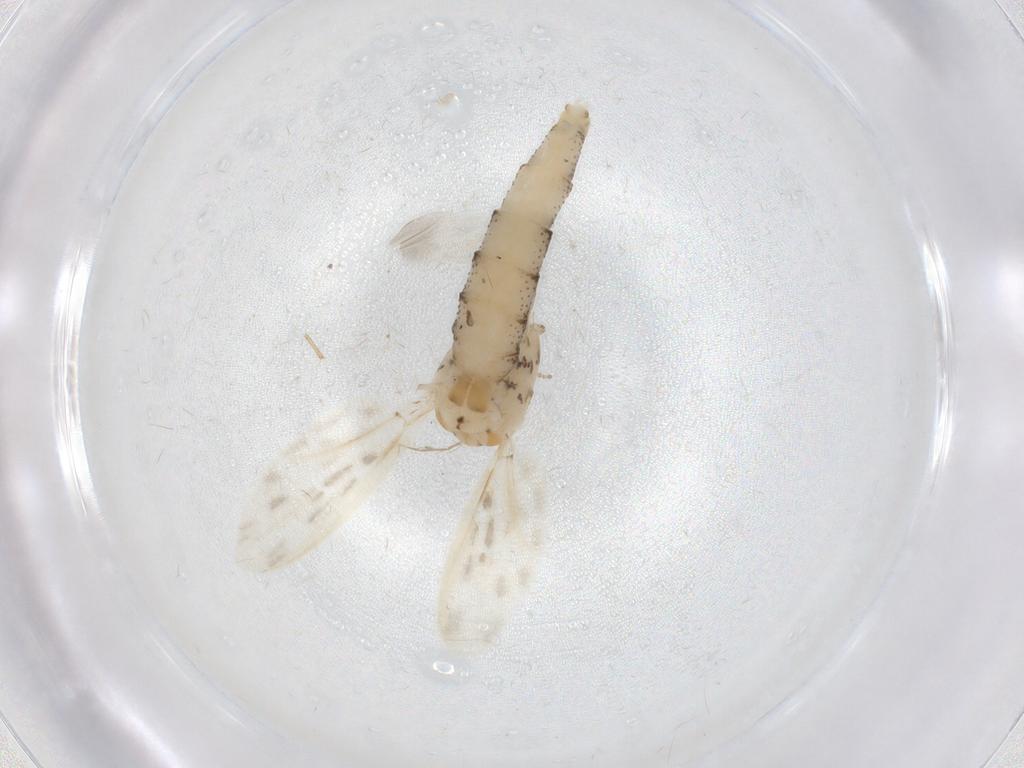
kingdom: Animalia
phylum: Arthropoda
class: Insecta
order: Diptera
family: Chaoboridae
